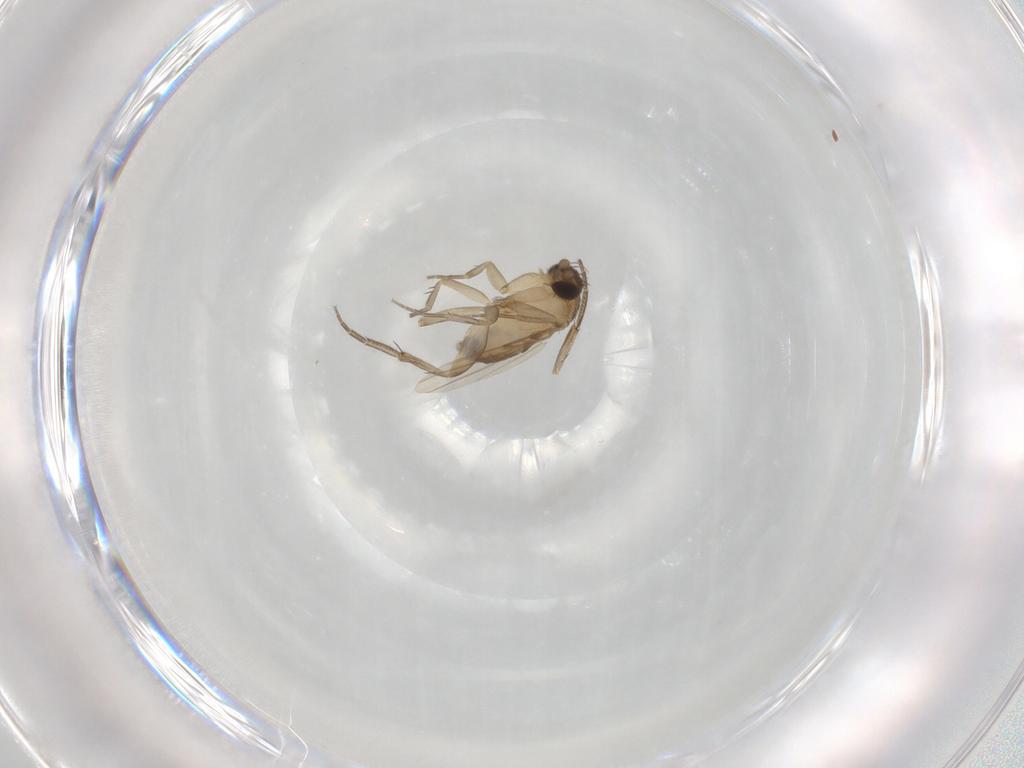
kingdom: Animalia
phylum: Arthropoda
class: Insecta
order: Diptera
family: Phoridae
